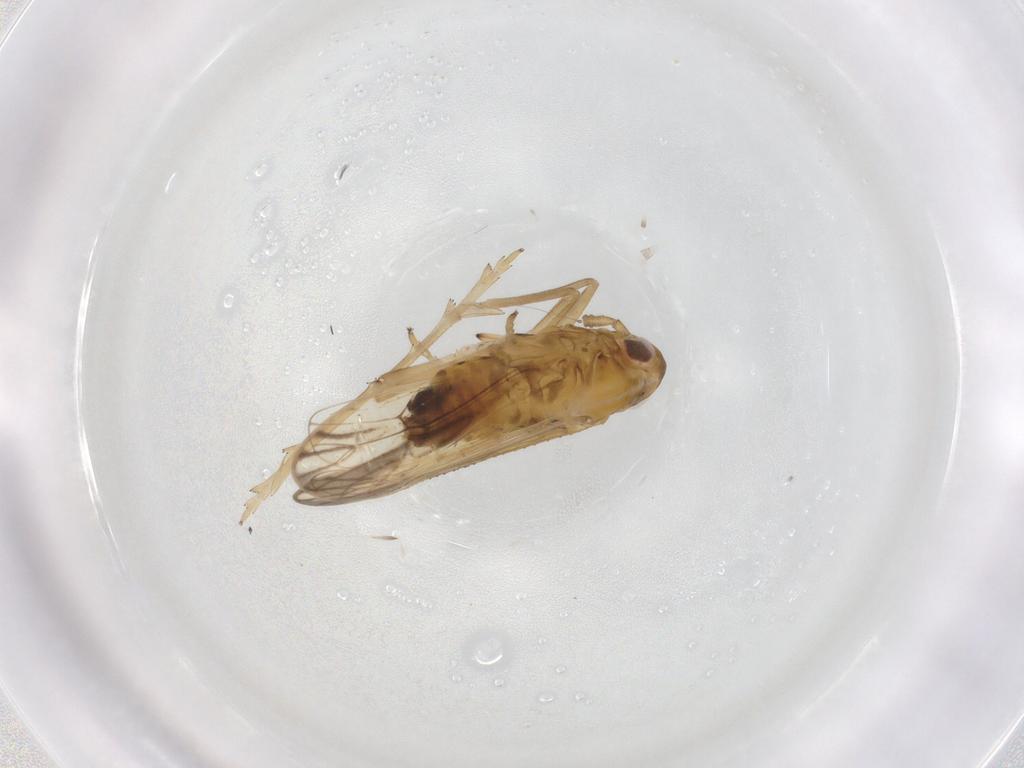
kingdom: Animalia
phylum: Arthropoda
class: Insecta
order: Hemiptera
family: Delphacidae
